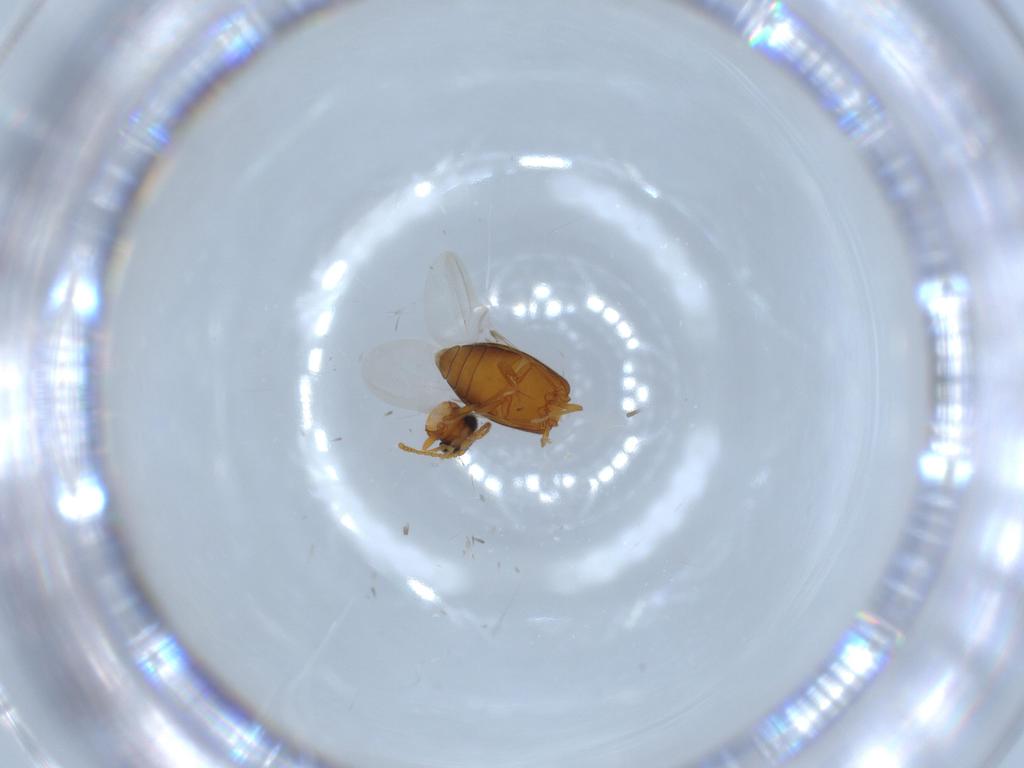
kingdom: Animalia
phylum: Arthropoda
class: Insecta
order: Coleoptera
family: Aderidae
